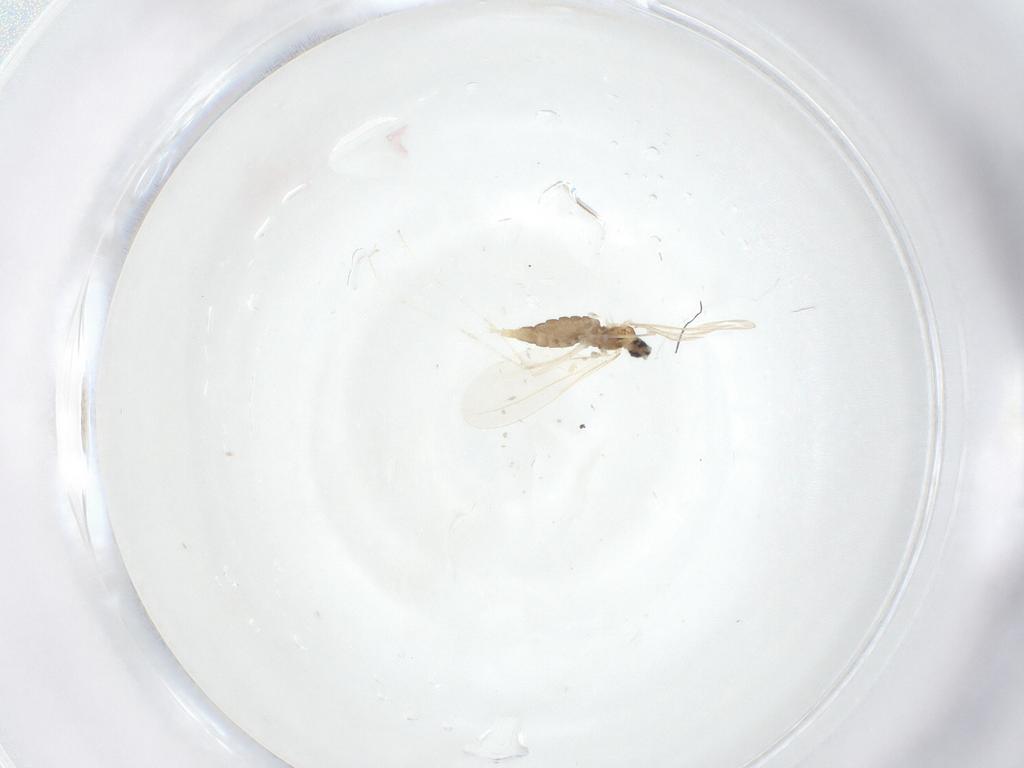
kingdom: Animalia
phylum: Arthropoda
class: Insecta
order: Diptera
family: Cecidomyiidae
